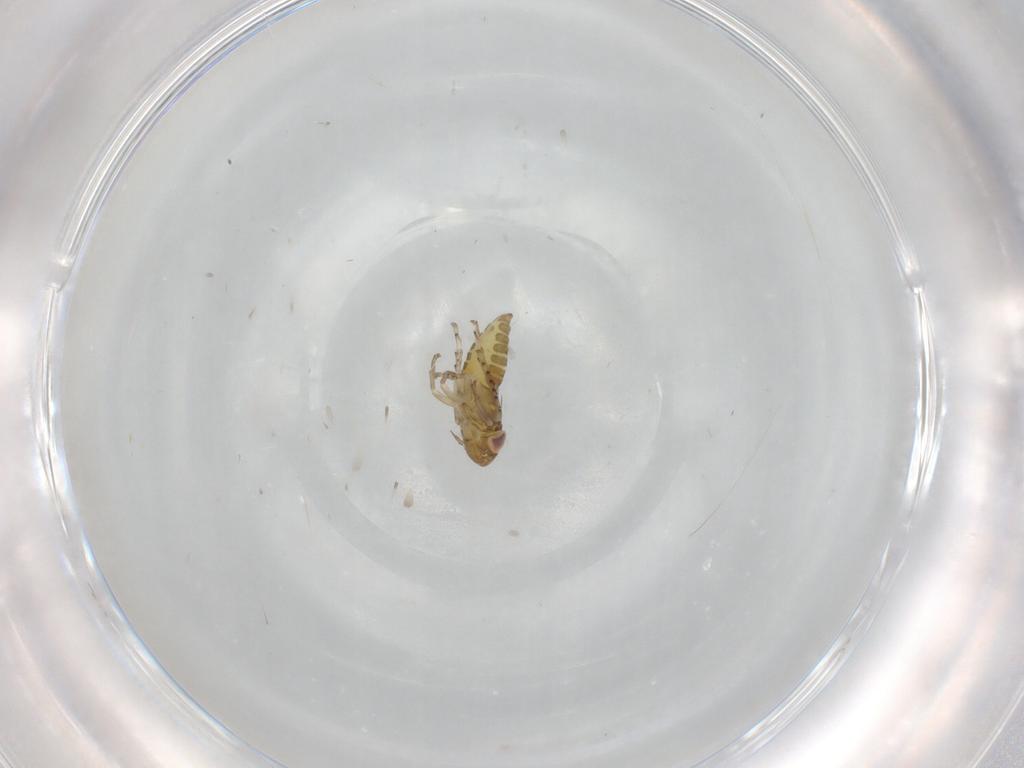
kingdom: Animalia
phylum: Arthropoda
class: Insecta
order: Hemiptera
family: Cicadellidae
